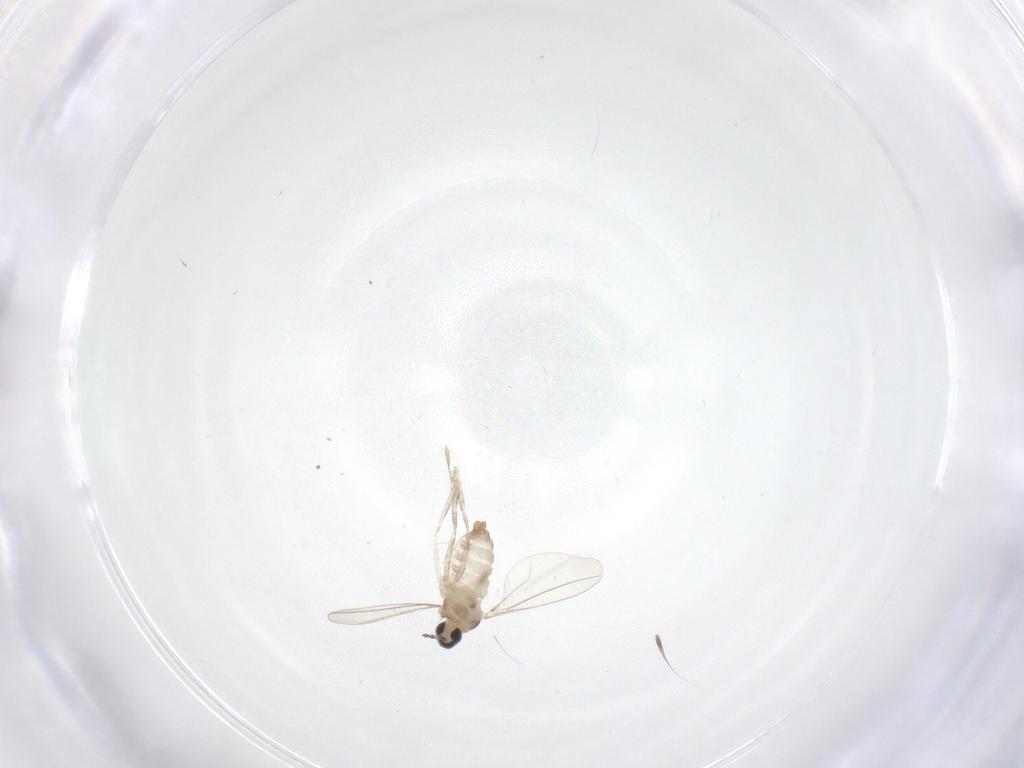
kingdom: Animalia
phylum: Arthropoda
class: Insecta
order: Diptera
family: Cecidomyiidae
